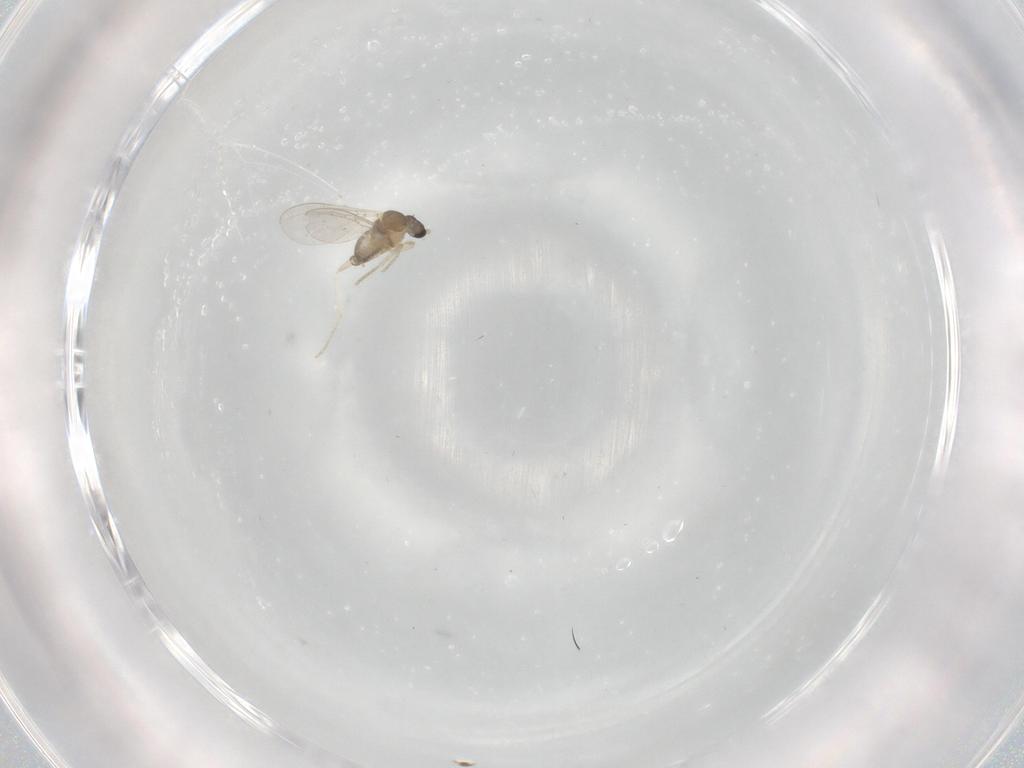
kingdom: Animalia
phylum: Arthropoda
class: Insecta
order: Diptera
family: Cecidomyiidae
